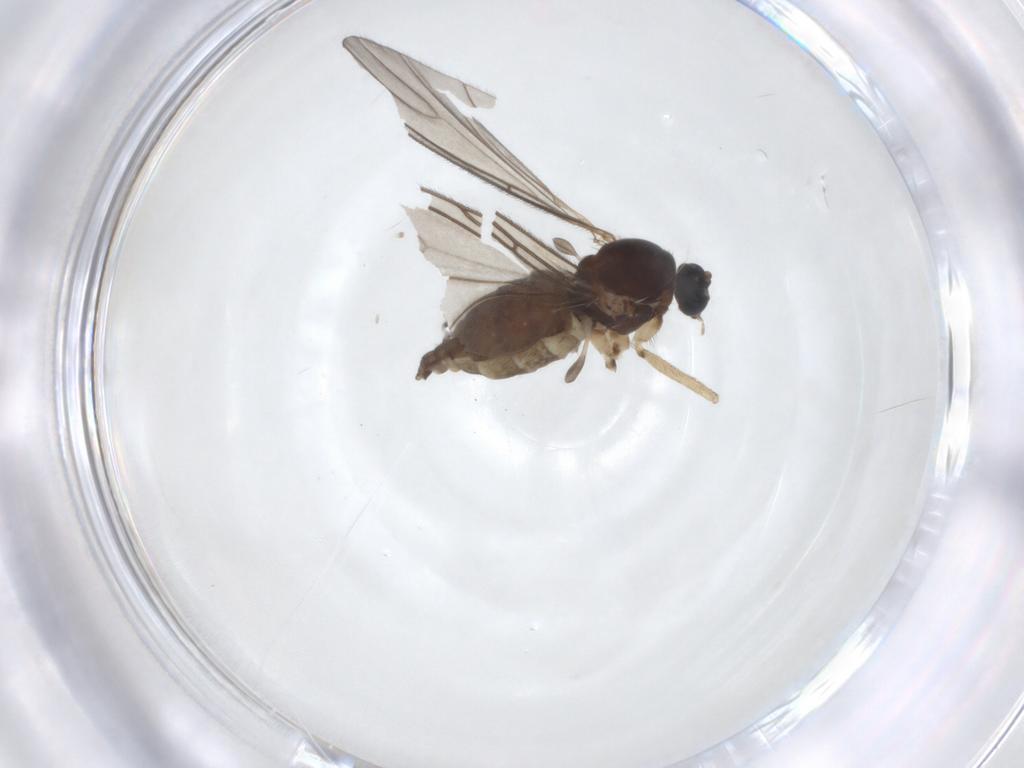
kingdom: Animalia
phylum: Arthropoda
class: Insecta
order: Diptera
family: Sciaridae
